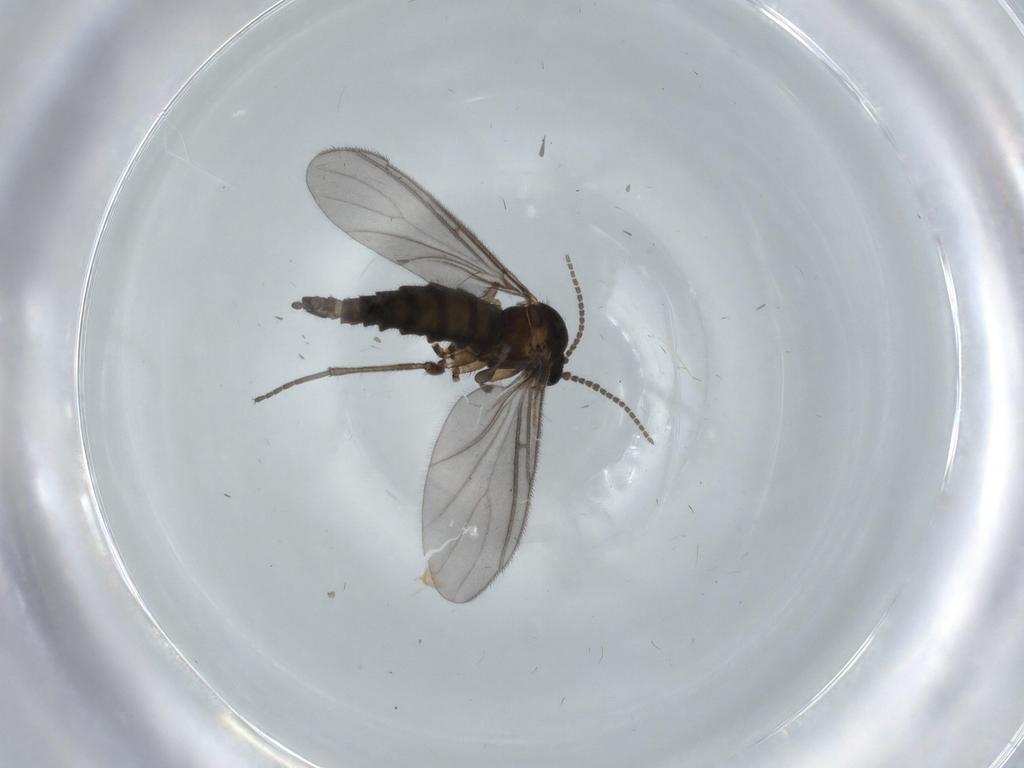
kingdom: Animalia
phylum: Arthropoda
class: Insecta
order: Diptera
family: Sciaridae
